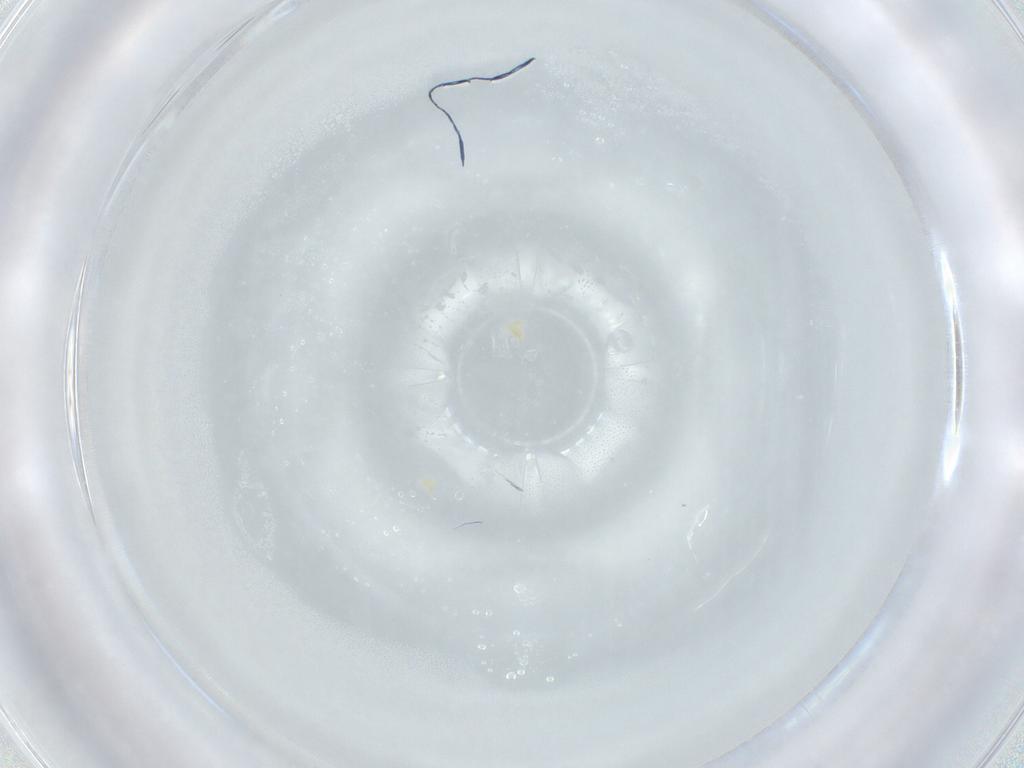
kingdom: Animalia
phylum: Arthropoda
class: Arachnida
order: Trombidiformes
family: Eupodidae
